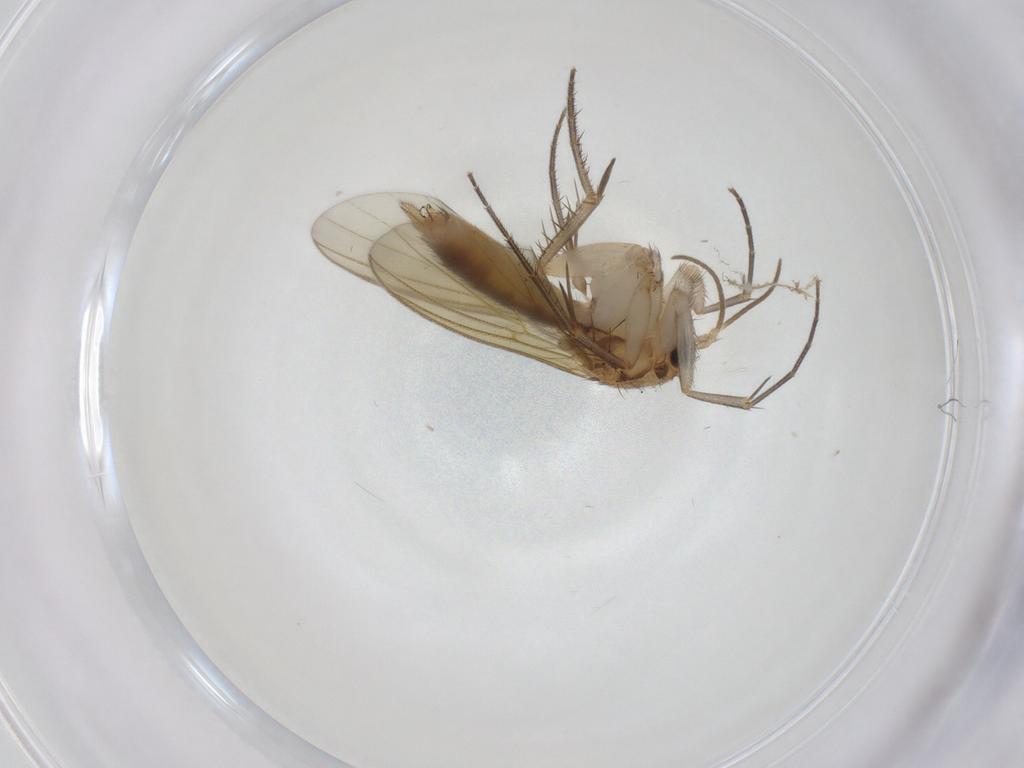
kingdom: Animalia
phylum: Arthropoda
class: Insecta
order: Diptera
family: Mycetophilidae
